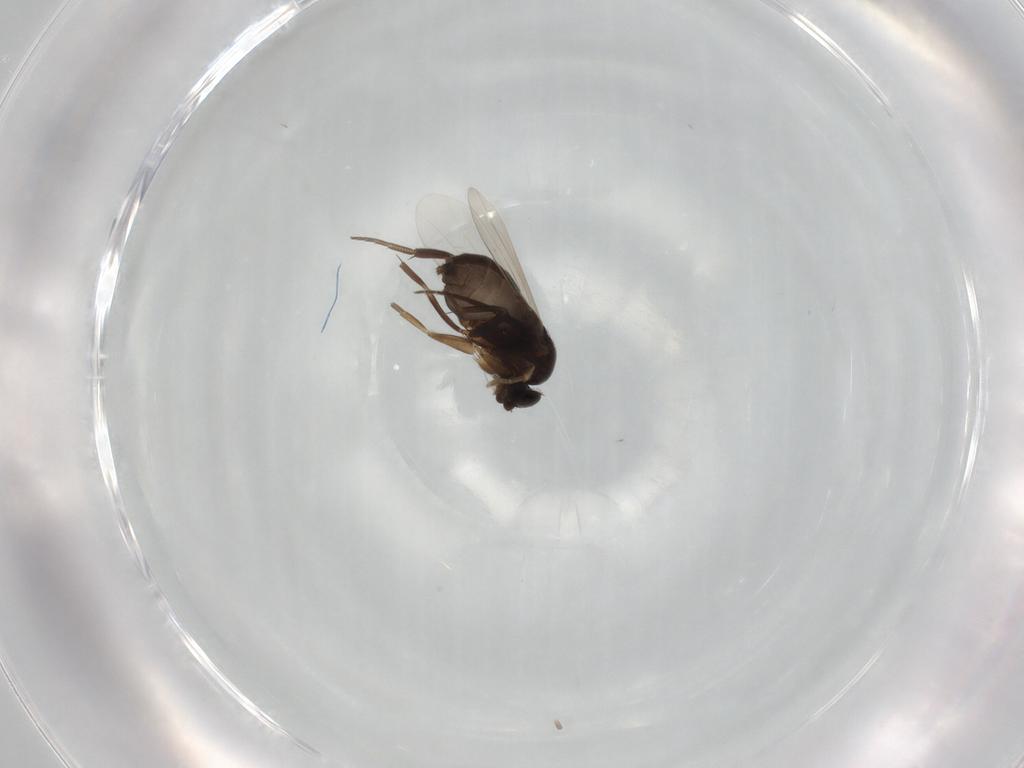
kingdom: Animalia
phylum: Arthropoda
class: Insecta
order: Diptera
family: Phoridae
